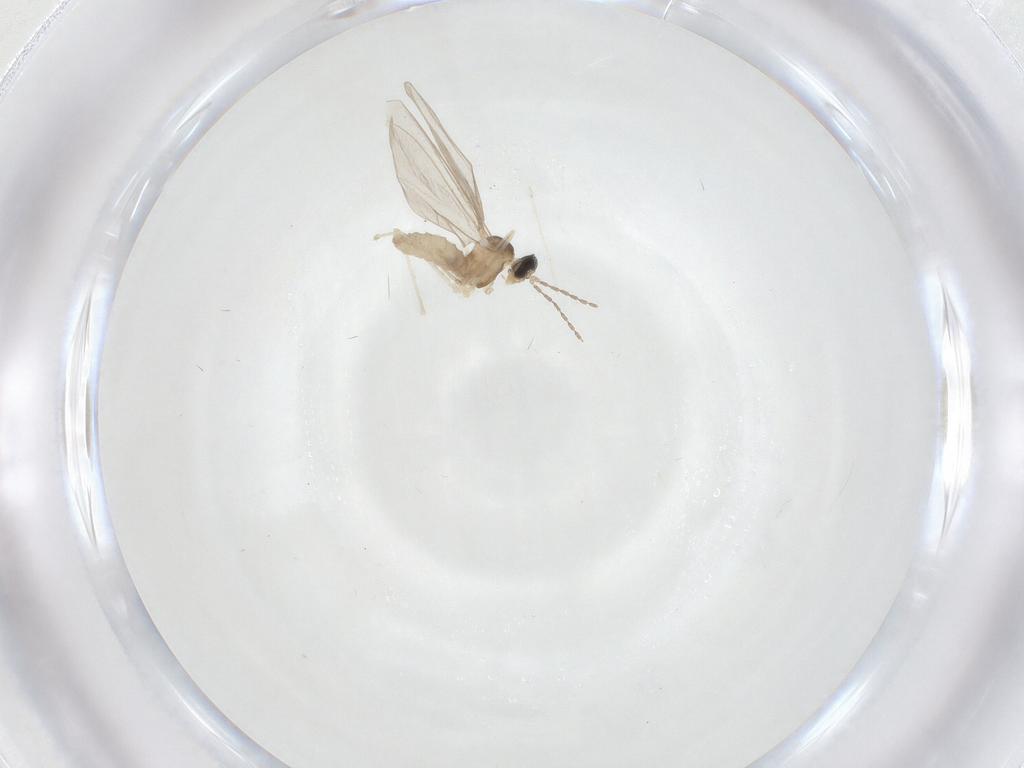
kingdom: Animalia
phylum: Arthropoda
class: Insecta
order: Diptera
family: Cecidomyiidae
